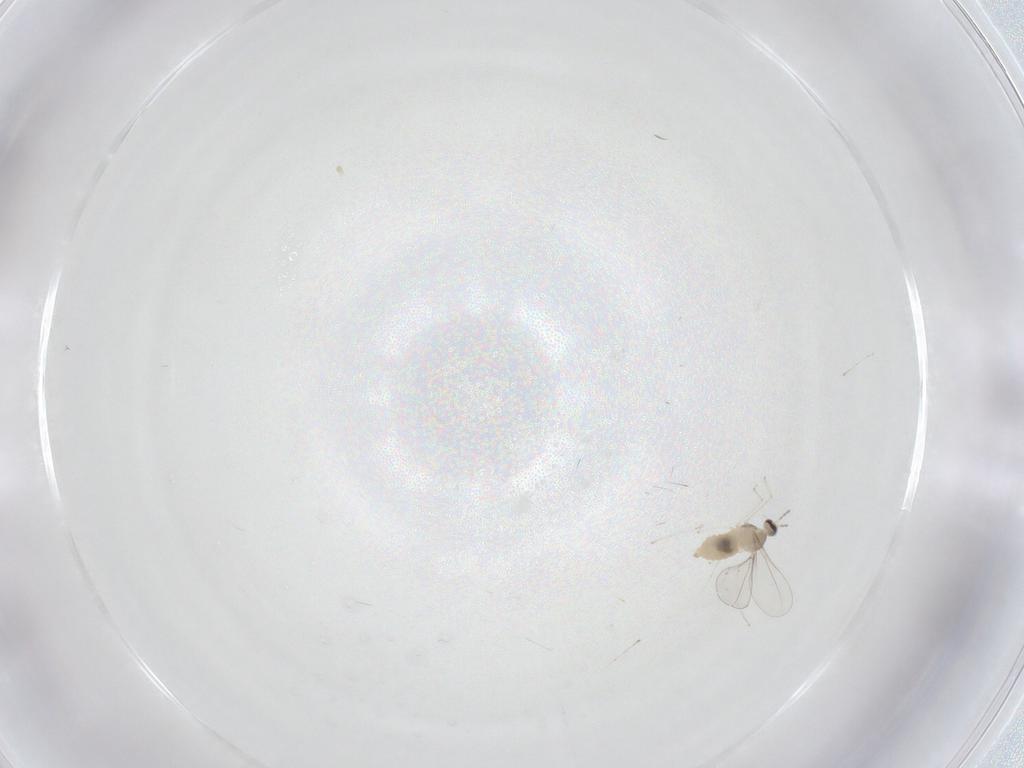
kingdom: Animalia
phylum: Arthropoda
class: Insecta
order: Diptera
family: Cecidomyiidae
